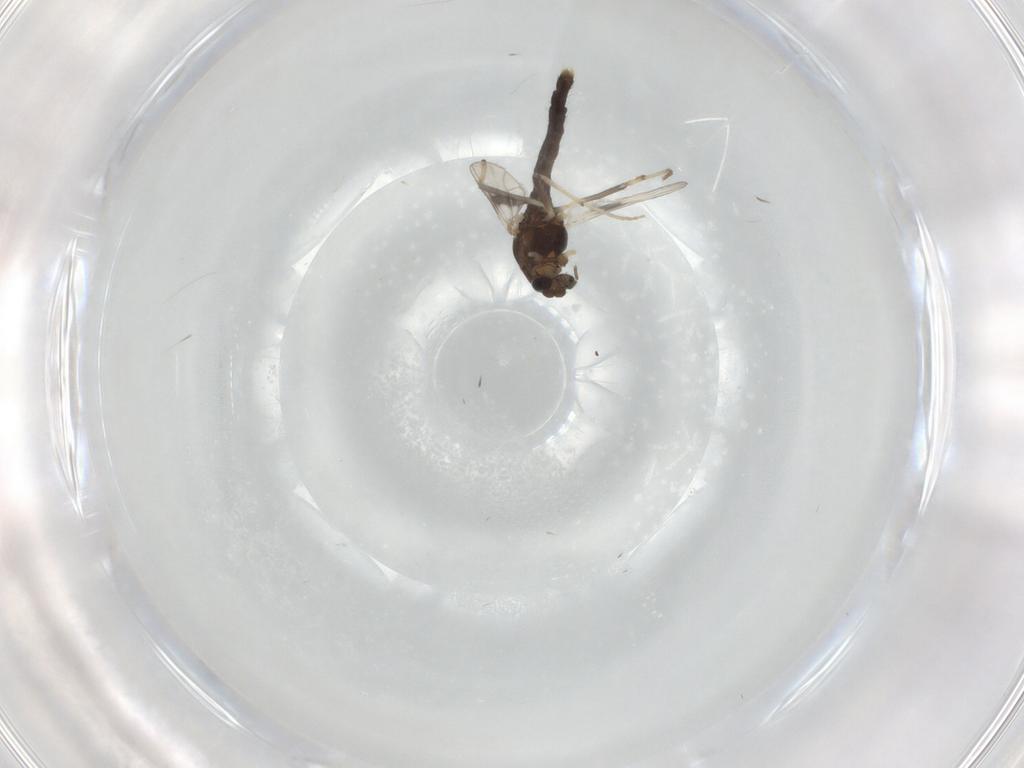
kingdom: Animalia
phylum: Arthropoda
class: Insecta
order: Diptera
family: Chironomidae
